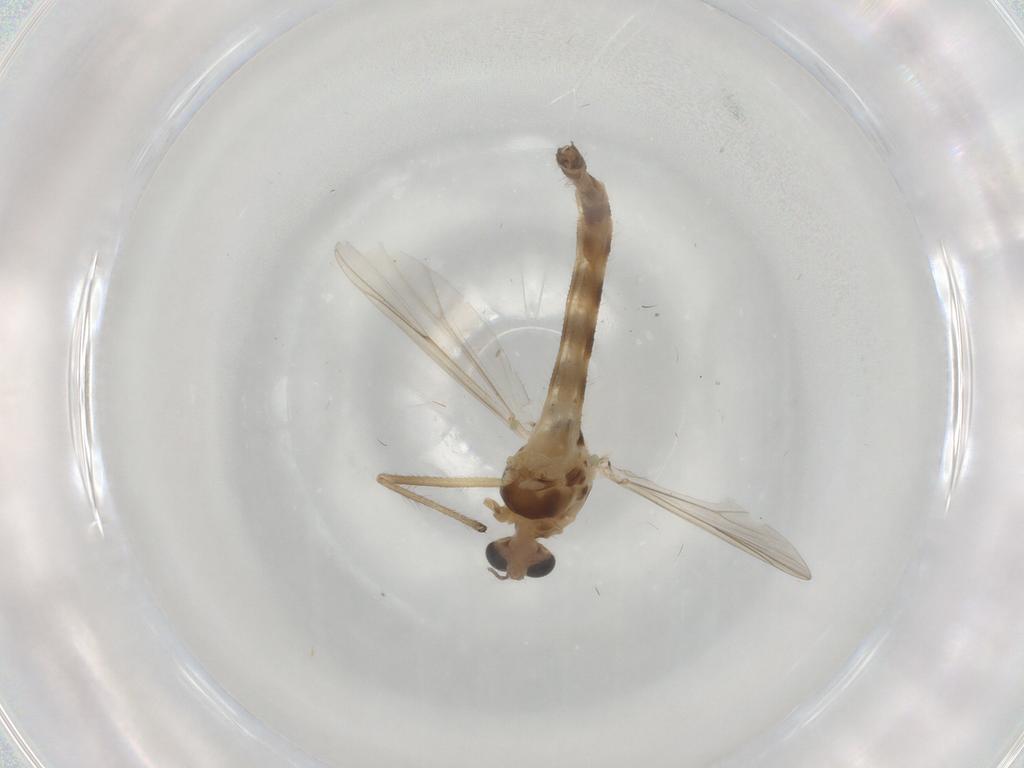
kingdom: Animalia
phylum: Arthropoda
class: Insecta
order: Diptera
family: Chironomidae
